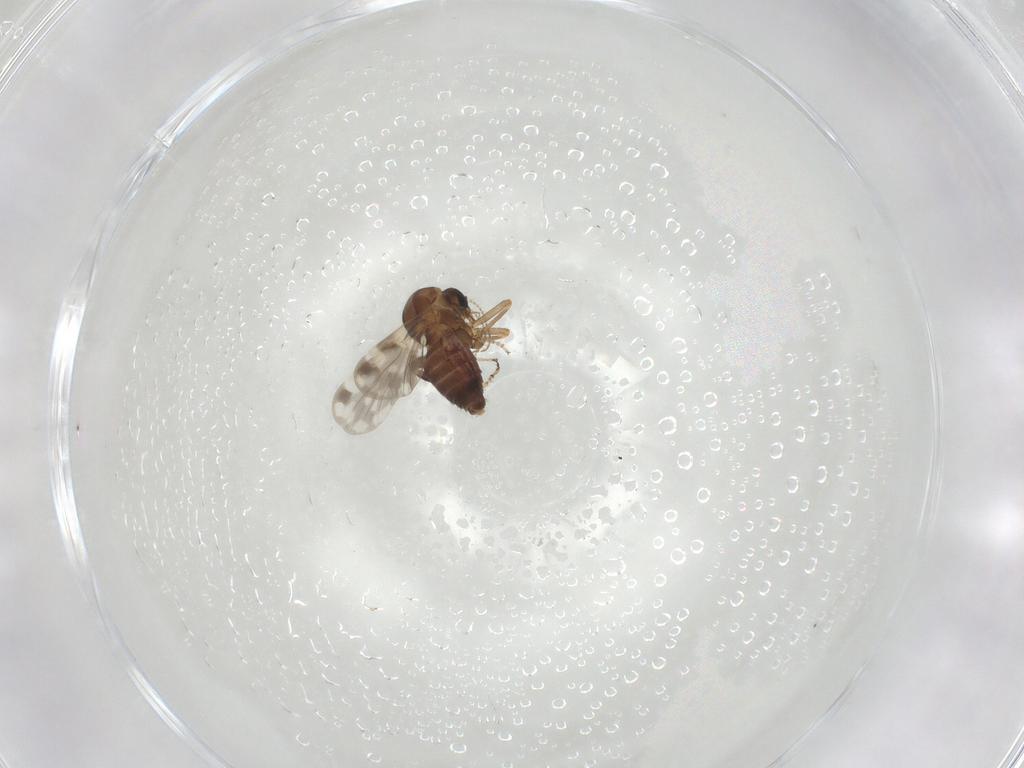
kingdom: Animalia
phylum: Arthropoda
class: Insecta
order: Diptera
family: Ceratopogonidae
